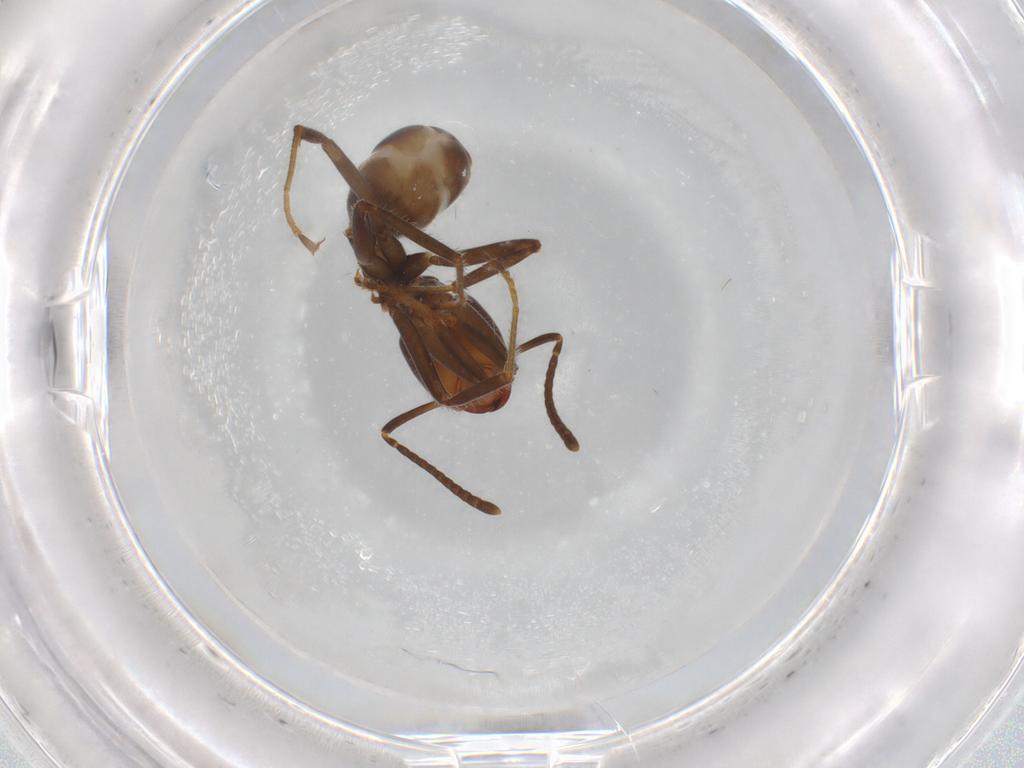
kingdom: Animalia
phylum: Arthropoda
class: Insecta
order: Hymenoptera
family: Formicidae
